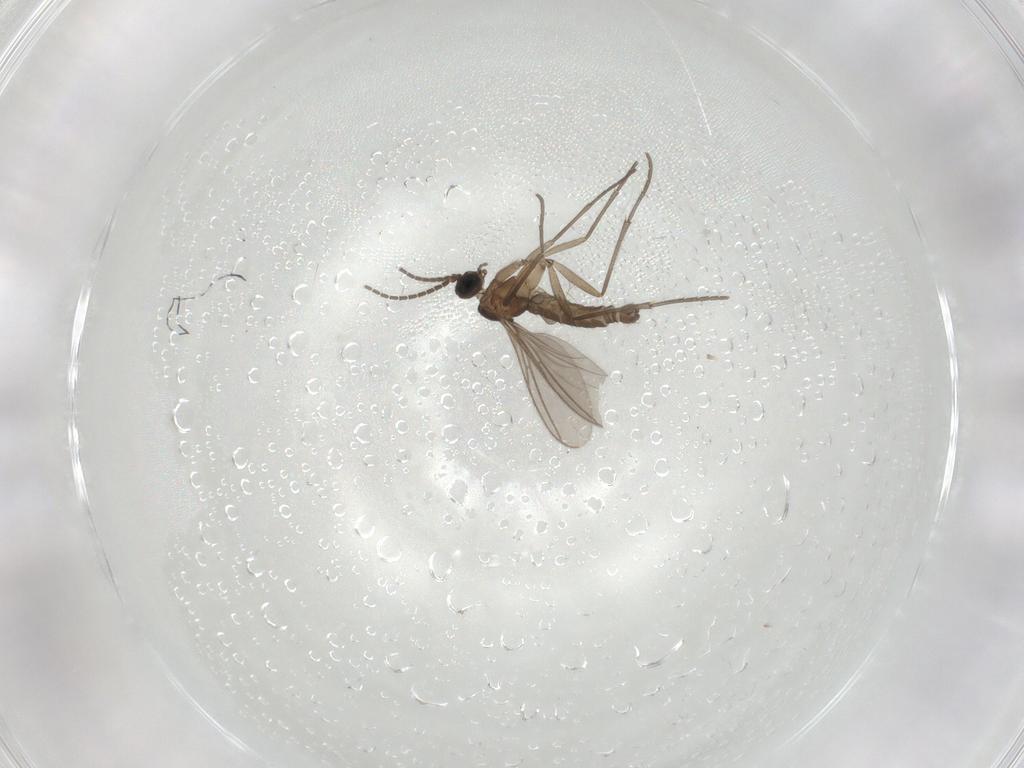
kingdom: Animalia
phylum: Arthropoda
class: Insecta
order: Diptera
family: Sciaridae
